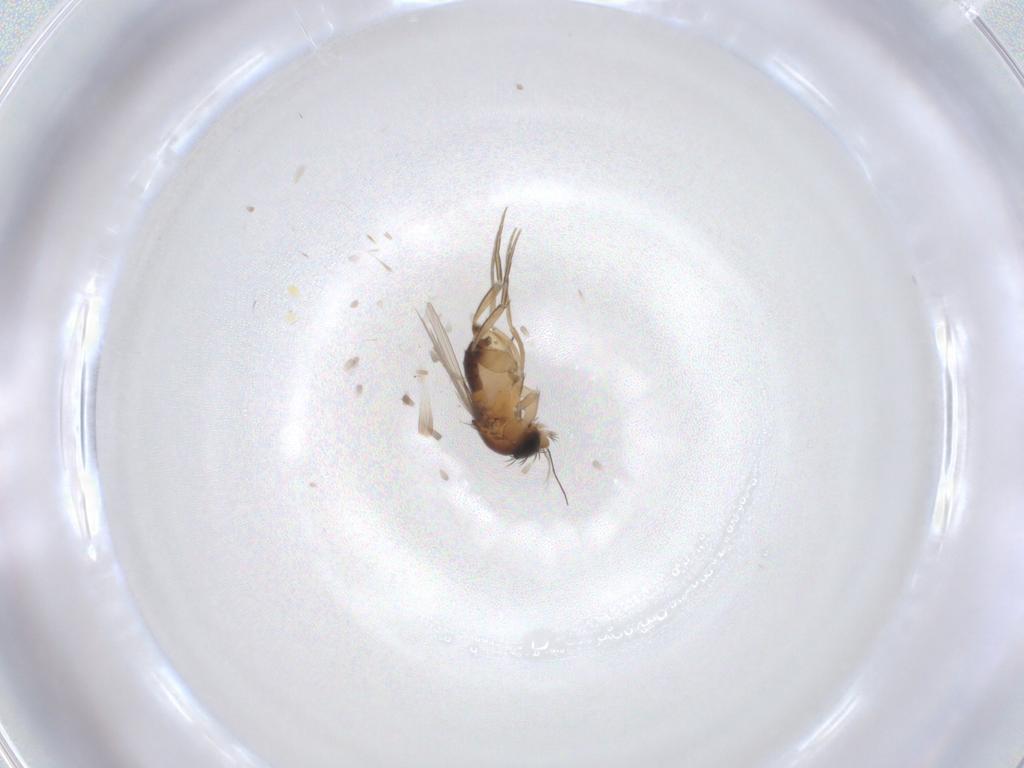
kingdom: Animalia
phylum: Arthropoda
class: Insecta
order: Diptera
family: Phoridae
